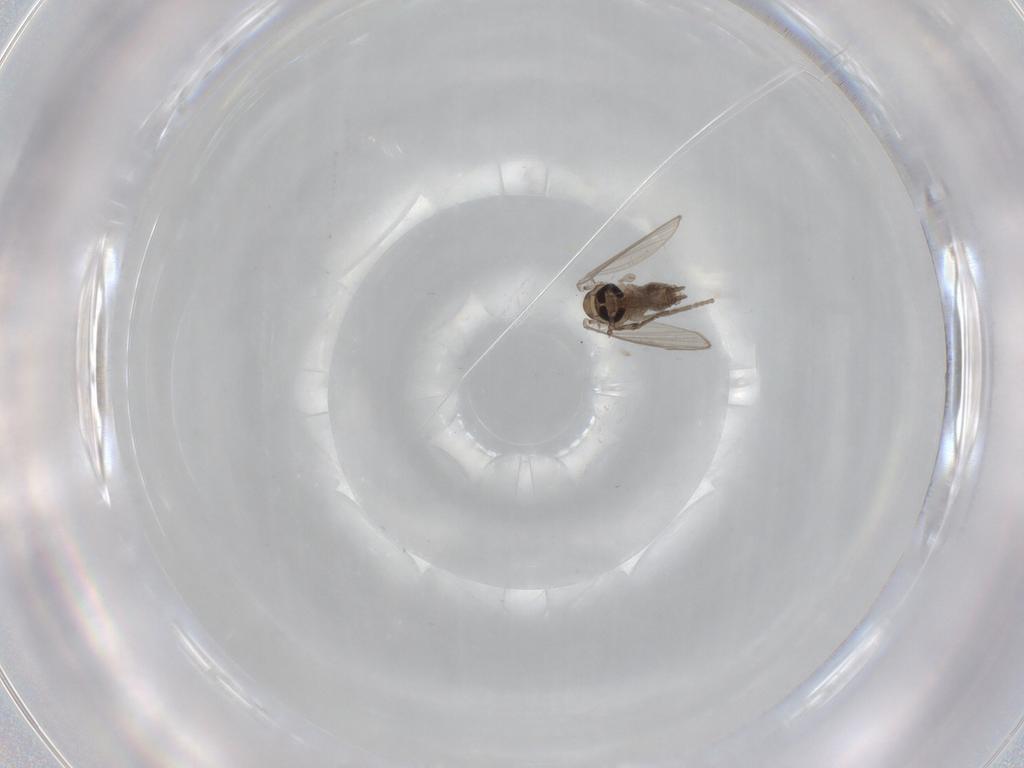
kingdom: Animalia
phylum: Arthropoda
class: Insecta
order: Diptera
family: Psychodidae
